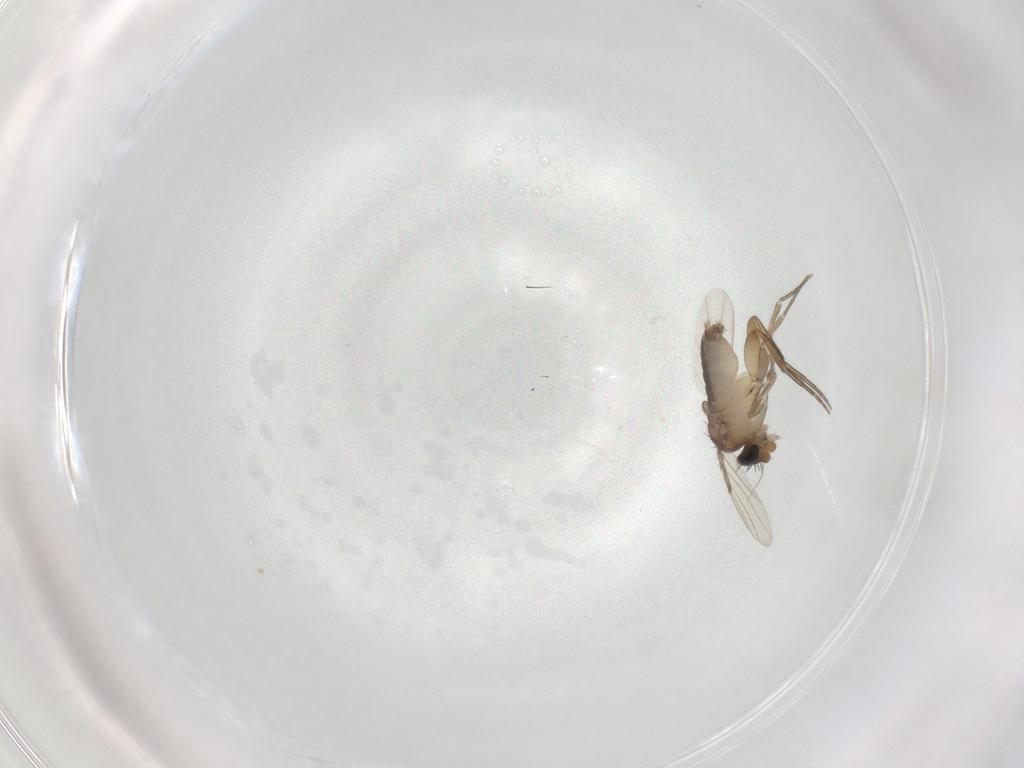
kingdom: Animalia
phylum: Arthropoda
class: Insecta
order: Diptera
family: Phoridae
